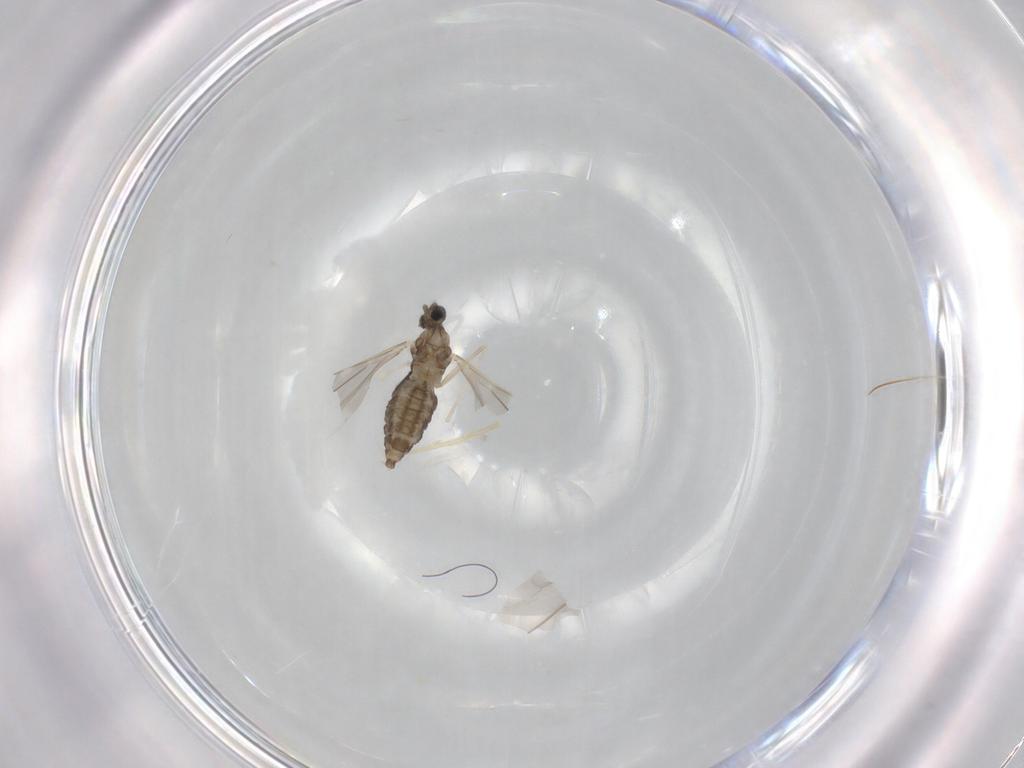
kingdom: Animalia
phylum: Arthropoda
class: Insecta
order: Diptera
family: Cecidomyiidae
